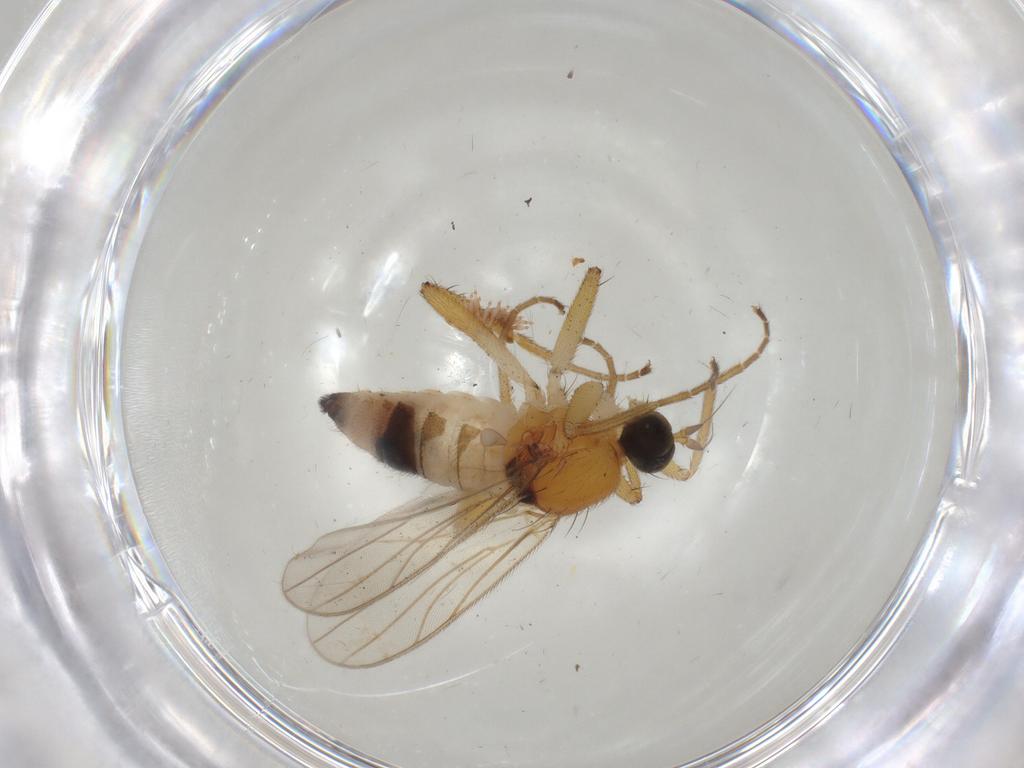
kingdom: Animalia
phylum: Arthropoda
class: Insecta
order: Diptera
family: Hybotidae
